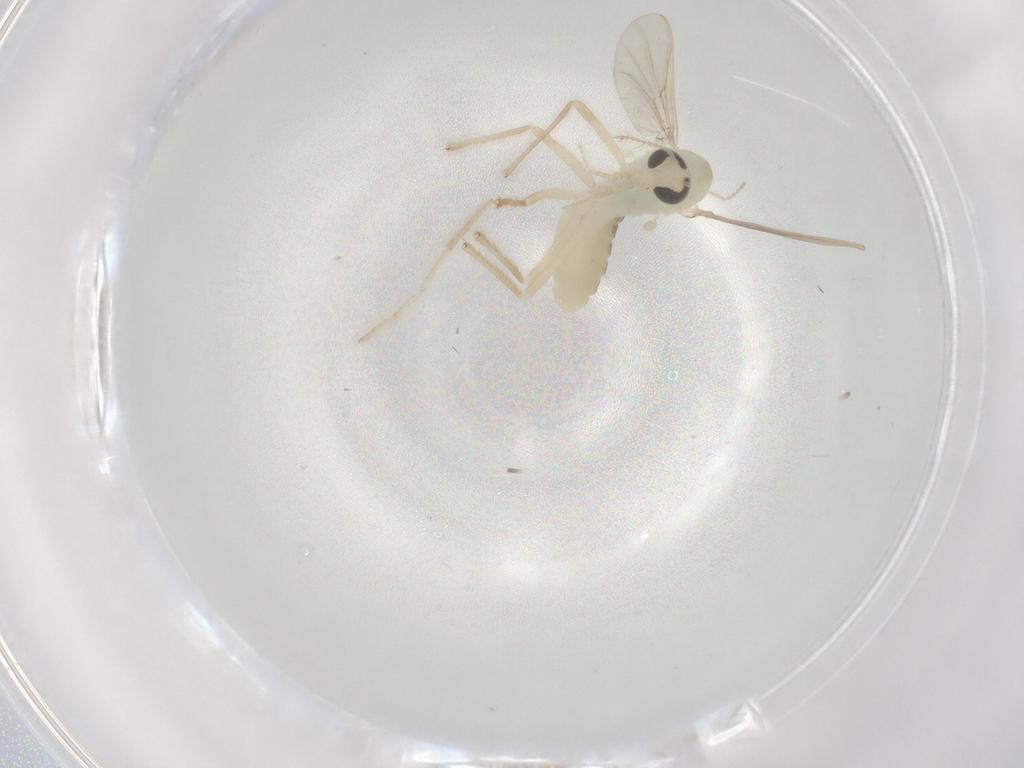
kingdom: Animalia
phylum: Arthropoda
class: Insecta
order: Diptera
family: Chironomidae
